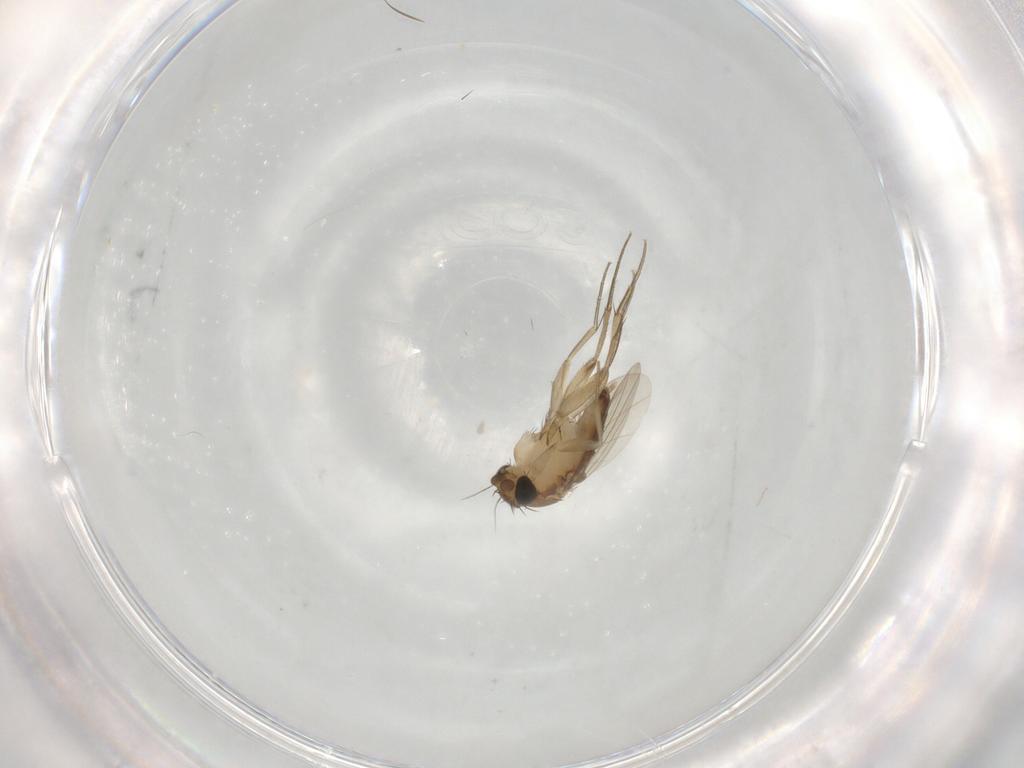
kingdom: Animalia
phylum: Arthropoda
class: Insecta
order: Diptera
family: Phoridae
